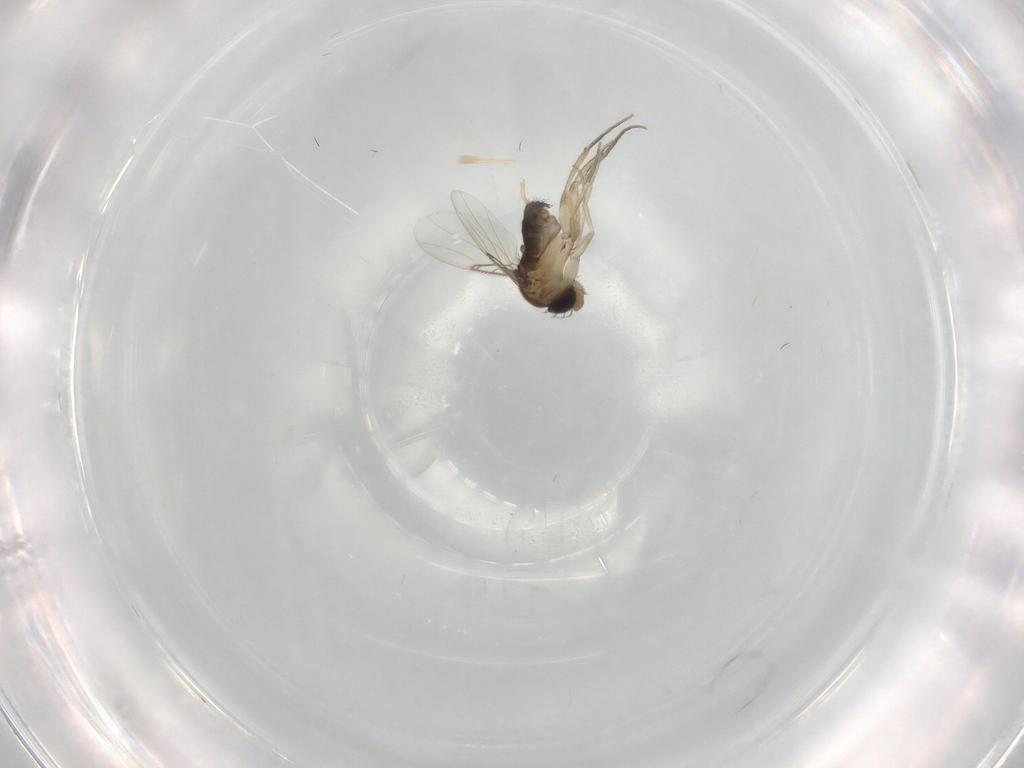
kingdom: Animalia
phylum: Arthropoda
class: Insecta
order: Diptera
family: Phoridae
